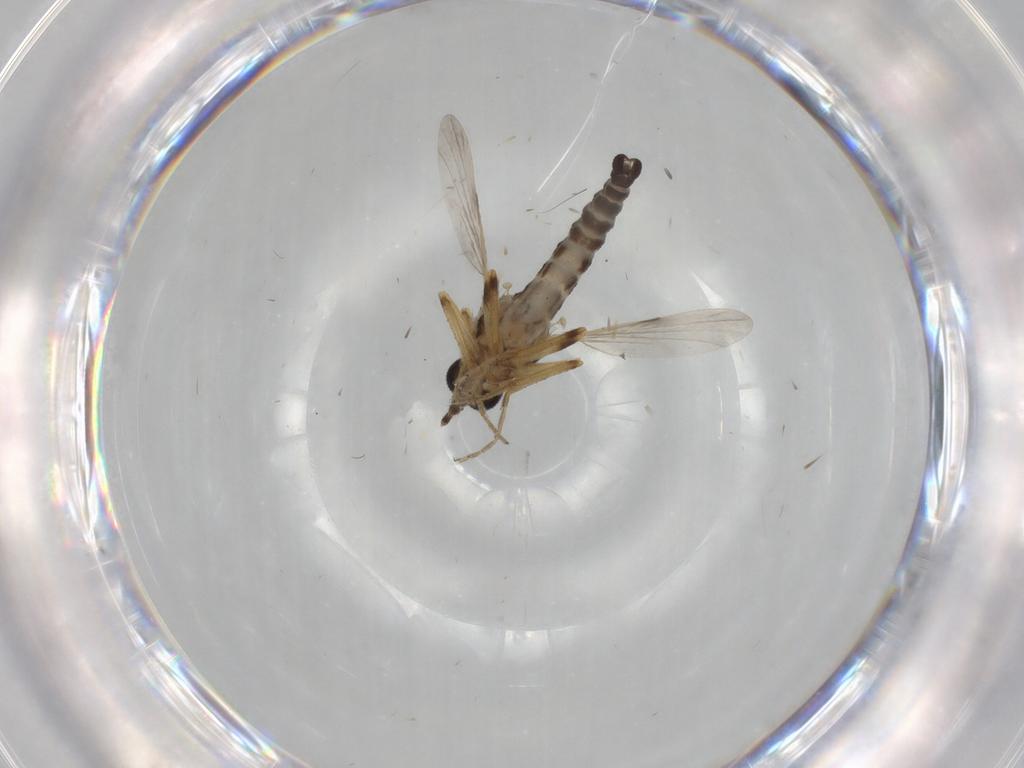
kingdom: Animalia
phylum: Arthropoda
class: Insecta
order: Diptera
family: Ceratopogonidae
